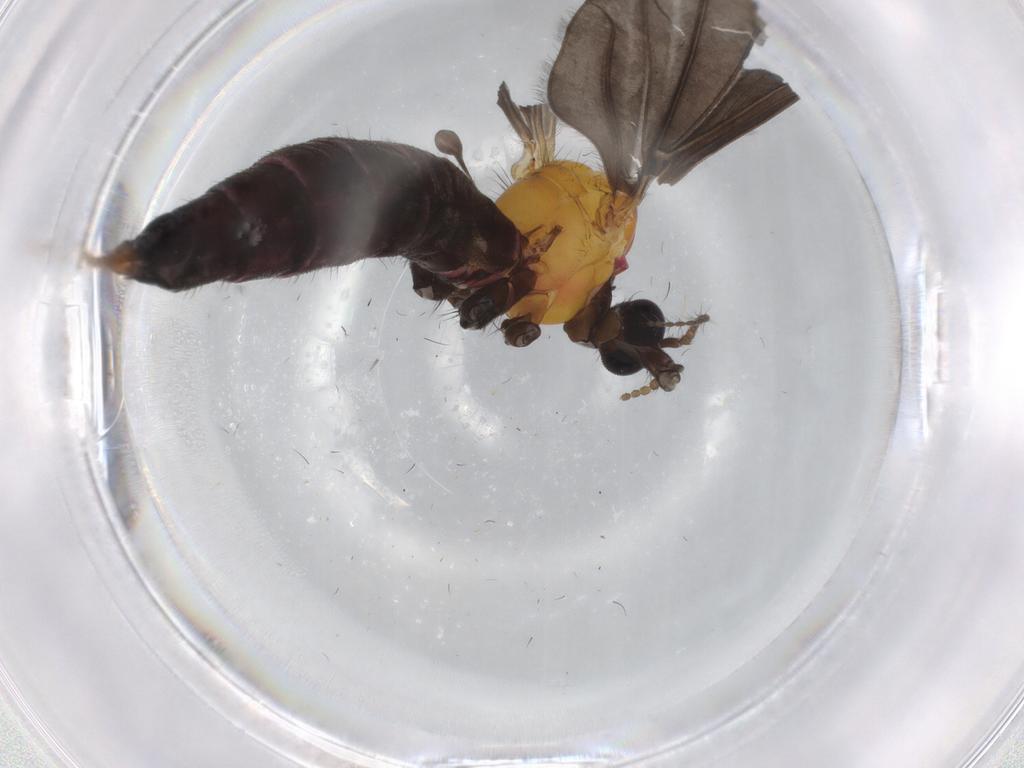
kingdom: Animalia
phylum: Arthropoda
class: Insecta
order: Diptera
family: Limoniidae
